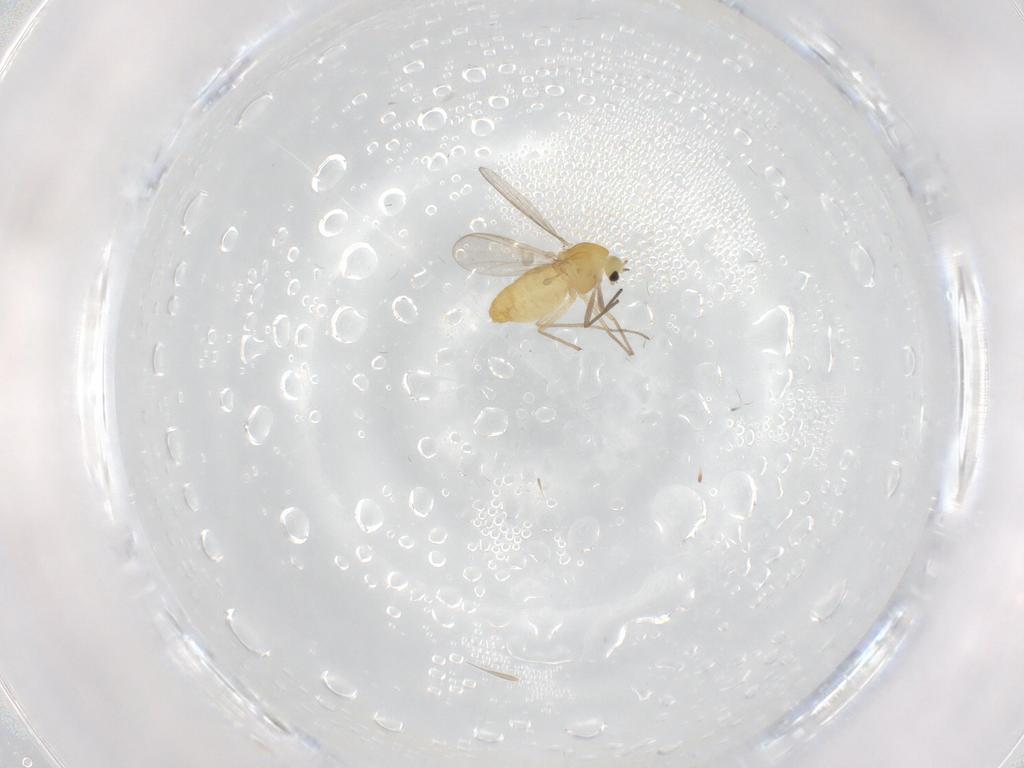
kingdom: Animalia
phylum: Arthropoda
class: Insecta
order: Diptera
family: Chironomidae
